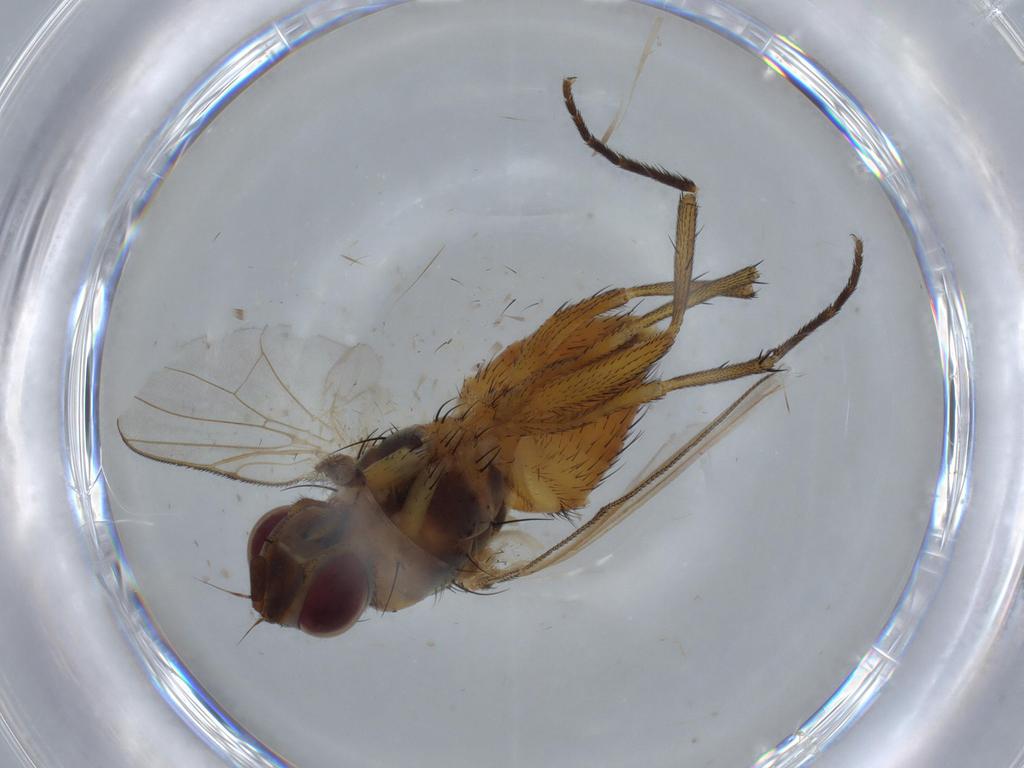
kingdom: Animalia
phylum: Arthropoda
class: Insecta
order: Diptera
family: Muscidae
